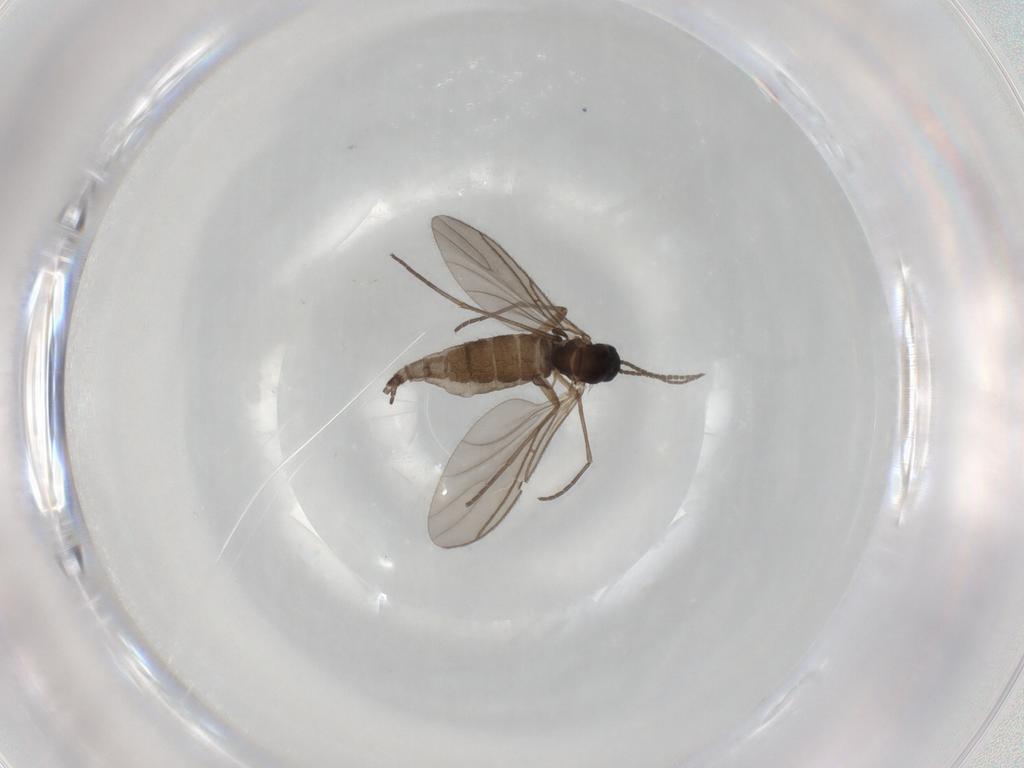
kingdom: Animalia
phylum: Arthropoda
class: Insecta
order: Diptera
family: Sciaridae
